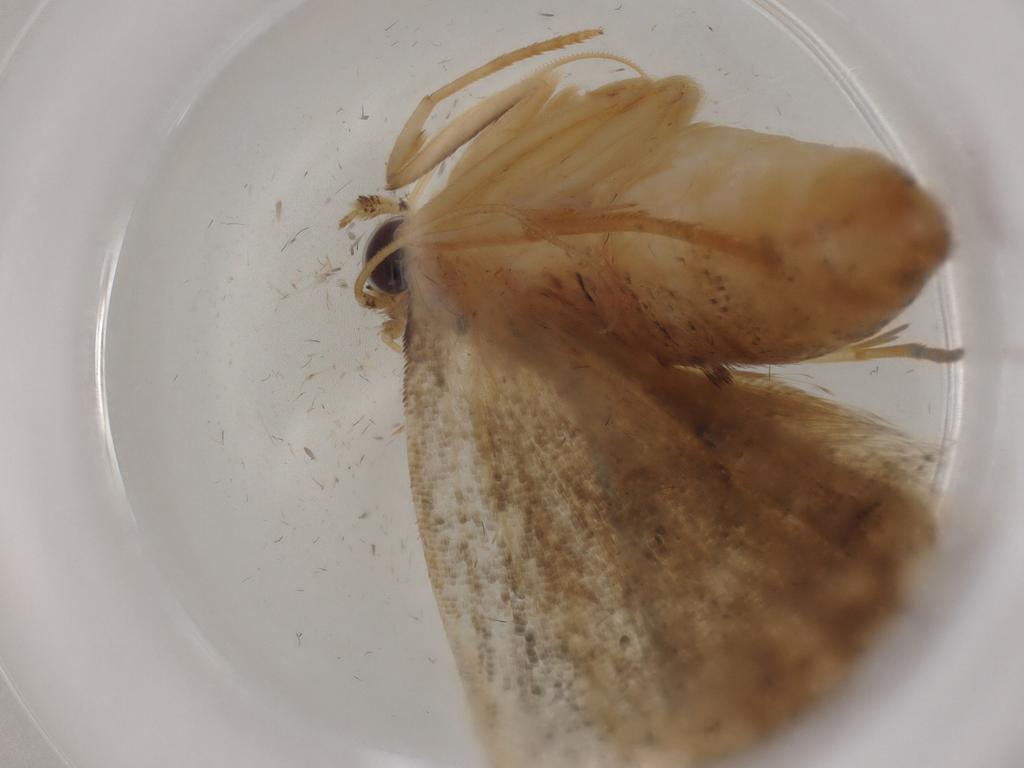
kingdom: Animalia
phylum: Arthropoda
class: Insecta
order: Lepidoptera
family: Erebidae
